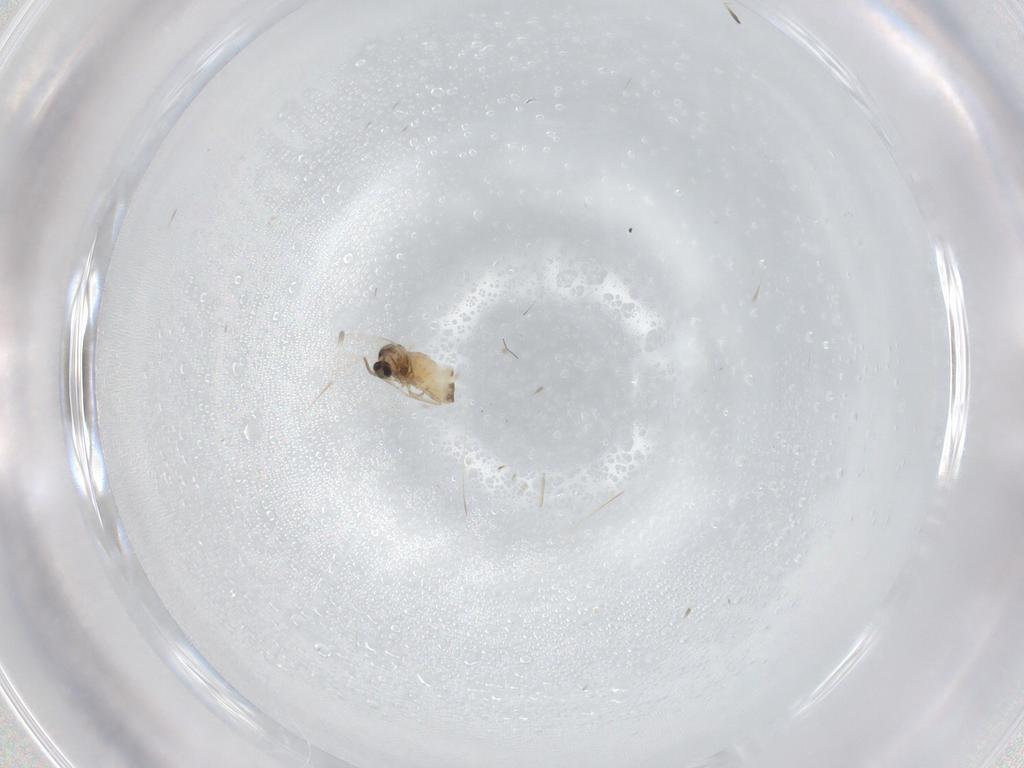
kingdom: Animalia
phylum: Arthropoda
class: Insecta
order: Diptera
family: Cecidomyiidae
